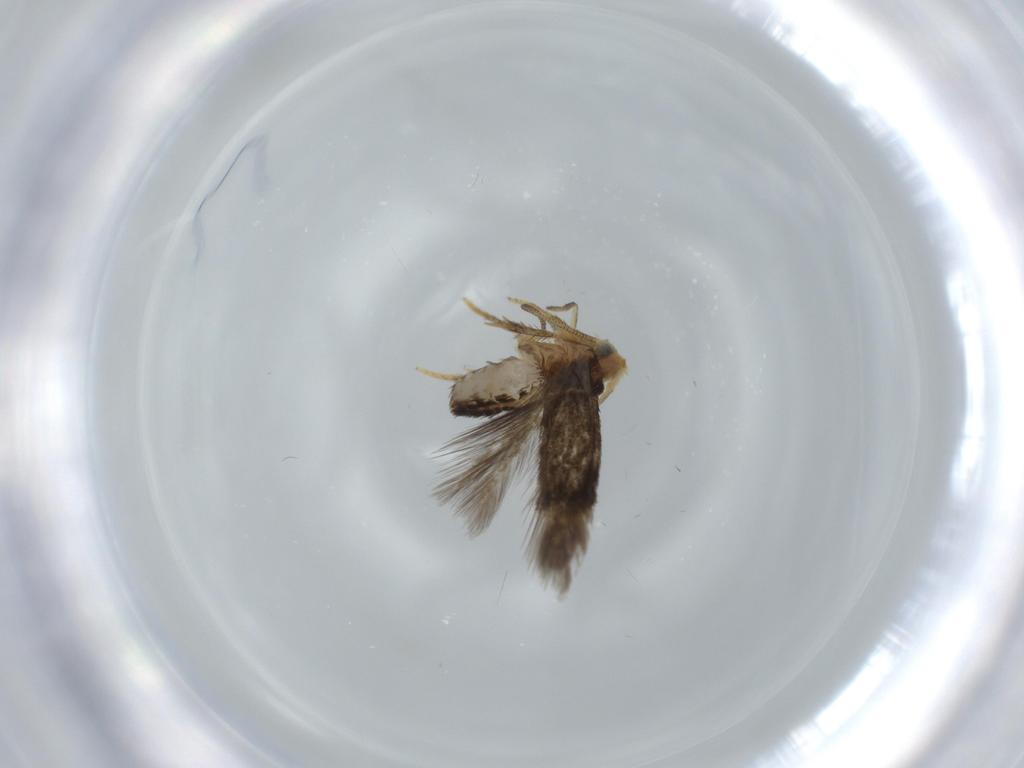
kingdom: Animalia
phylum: Arthropoda
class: Insecta
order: Lepidoptera
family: Nepticulidae
